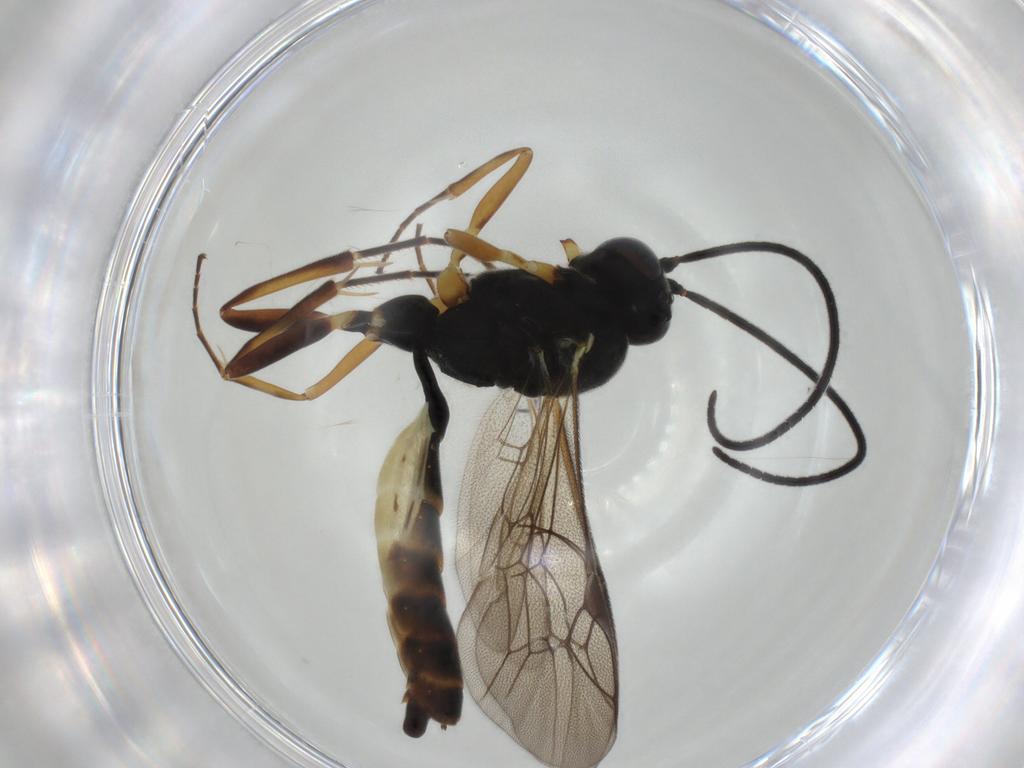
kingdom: Animalia
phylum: Arthropoda
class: Insecta
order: Hymenoptera
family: Ichneumonidae
